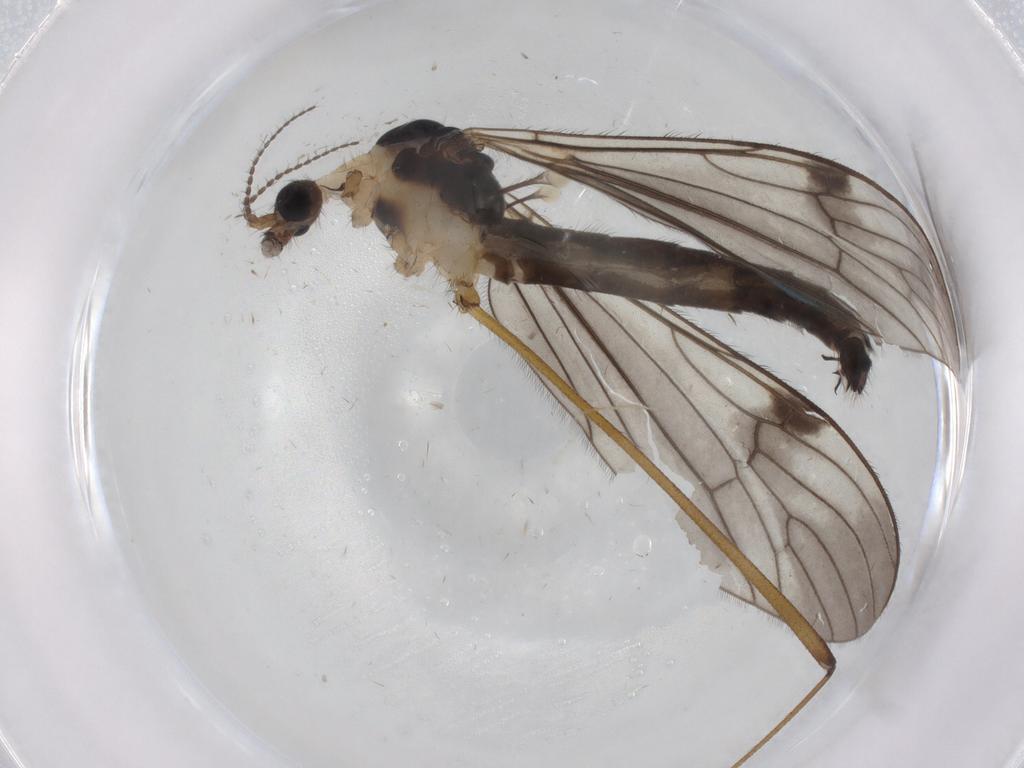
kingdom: Animalia
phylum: Arthropoda
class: Insecta
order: Diptera
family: Limoniidae
